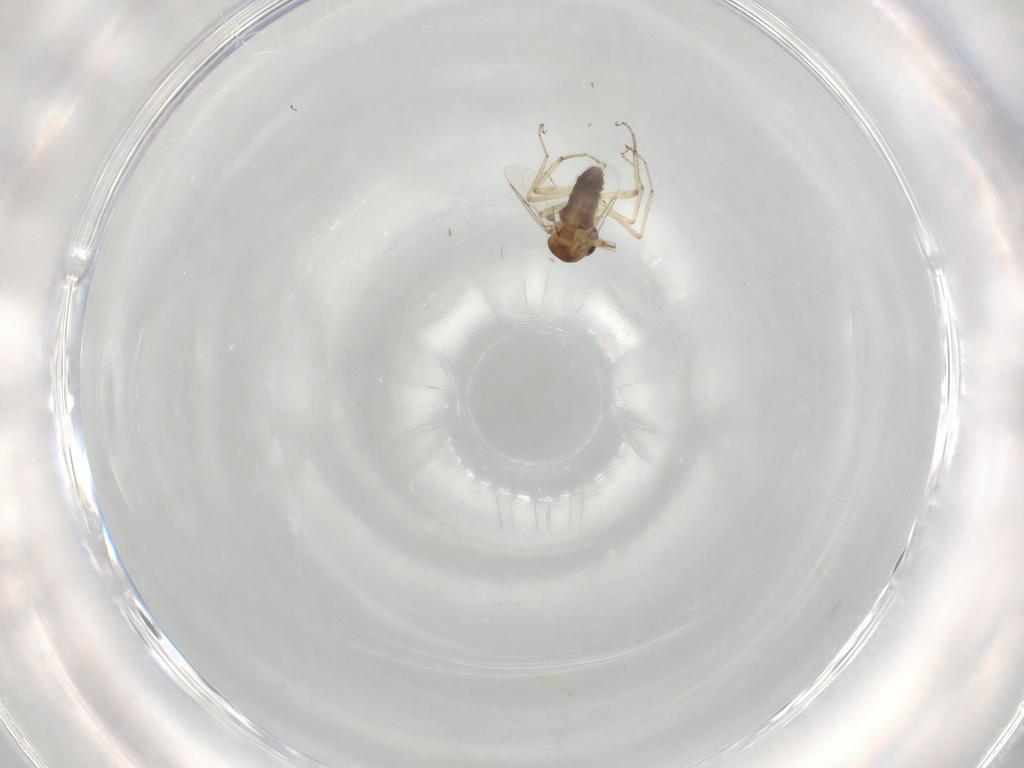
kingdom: Animalia
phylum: Arthropoda
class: Insecta
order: Diptera
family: Ceratopogonidae
